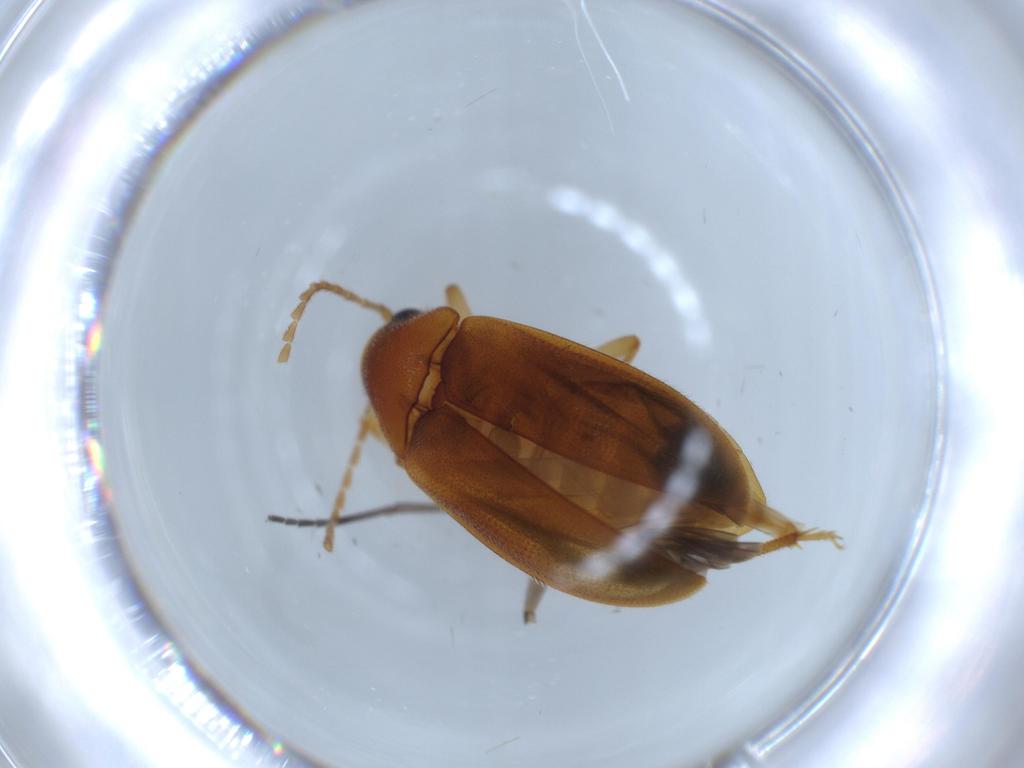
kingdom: Animalia
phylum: Arthropoda
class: Insecta
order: Coleoptera
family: Ptilodactylidae
